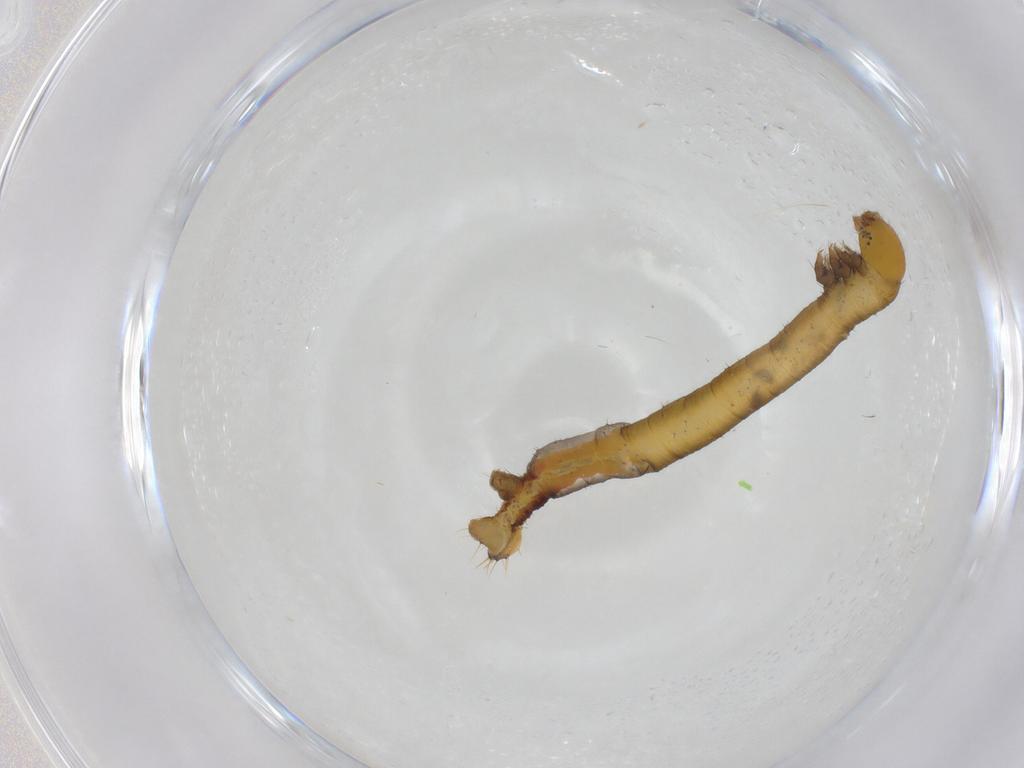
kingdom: Animalia
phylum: Arthropoda
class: Insecta
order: Lepidoptera
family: Geometridae
